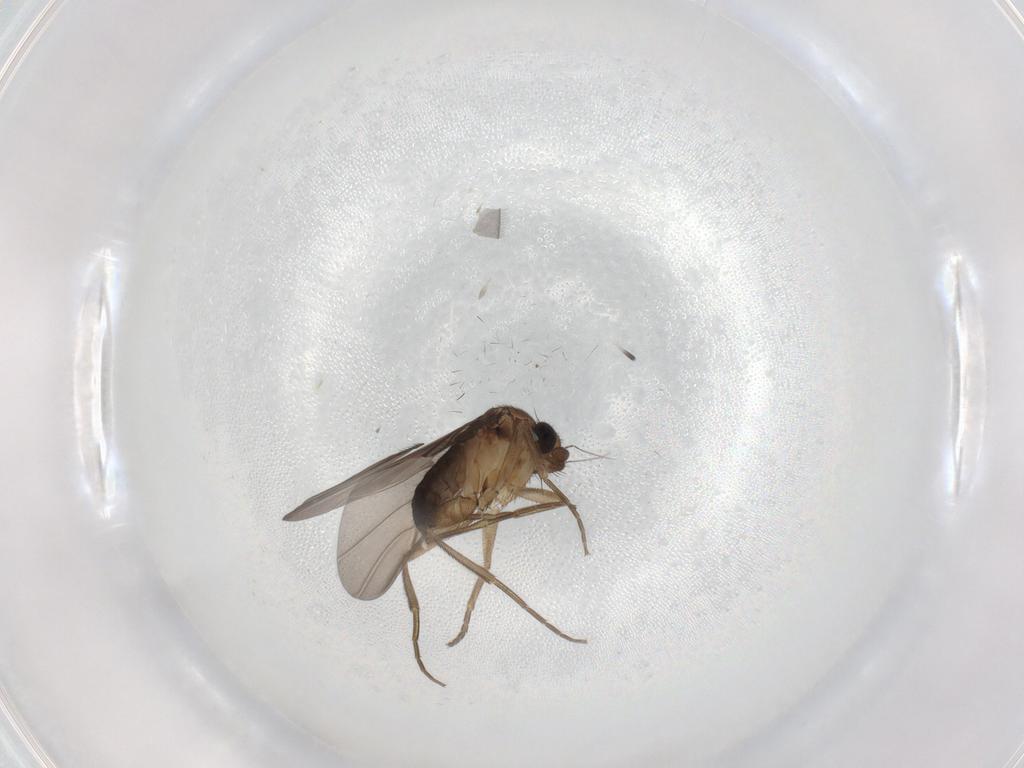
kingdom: Animalia
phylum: Arthropoda
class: Insecta
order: Diptera
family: Phoridae
